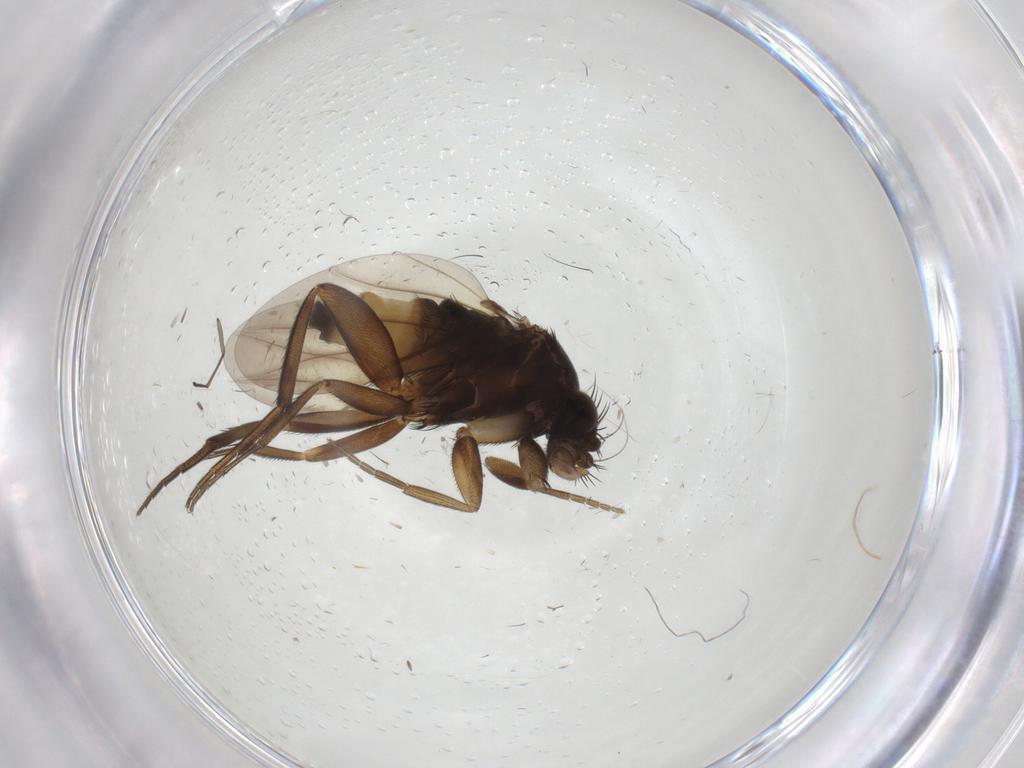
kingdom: Animalia
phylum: Arthropoda
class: Insecta
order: Diptera
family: Phoridae
